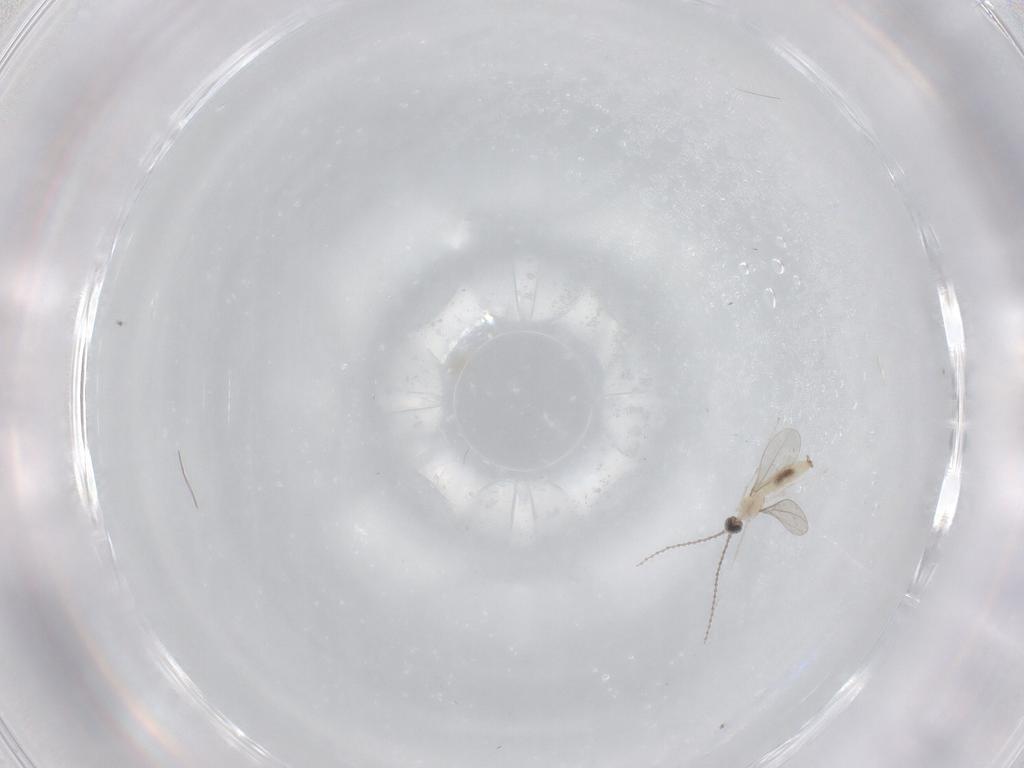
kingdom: Animalia
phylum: Arthropoda
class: Insecta
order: Diptera
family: Cecidomyiidae
